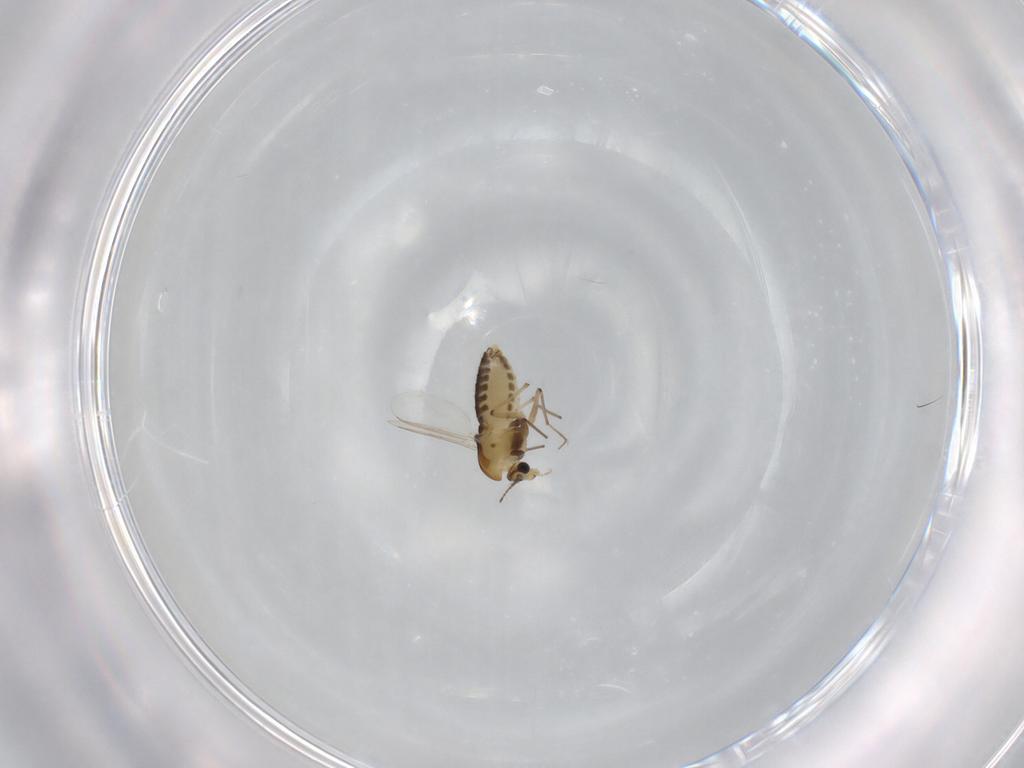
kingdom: Animalia
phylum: Arthropoda
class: Insecta
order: Diptera
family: Chironomidae
